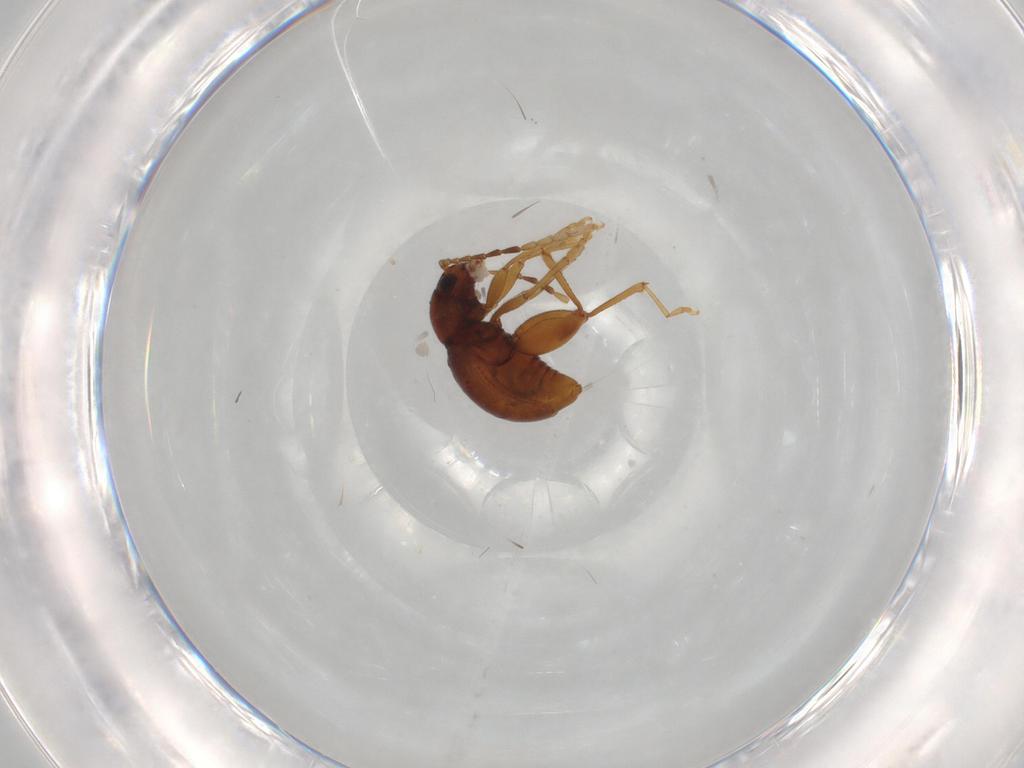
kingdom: Animalia
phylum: Arthropoda
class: Insecta
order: Coleoptera
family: Chrysomelidae
